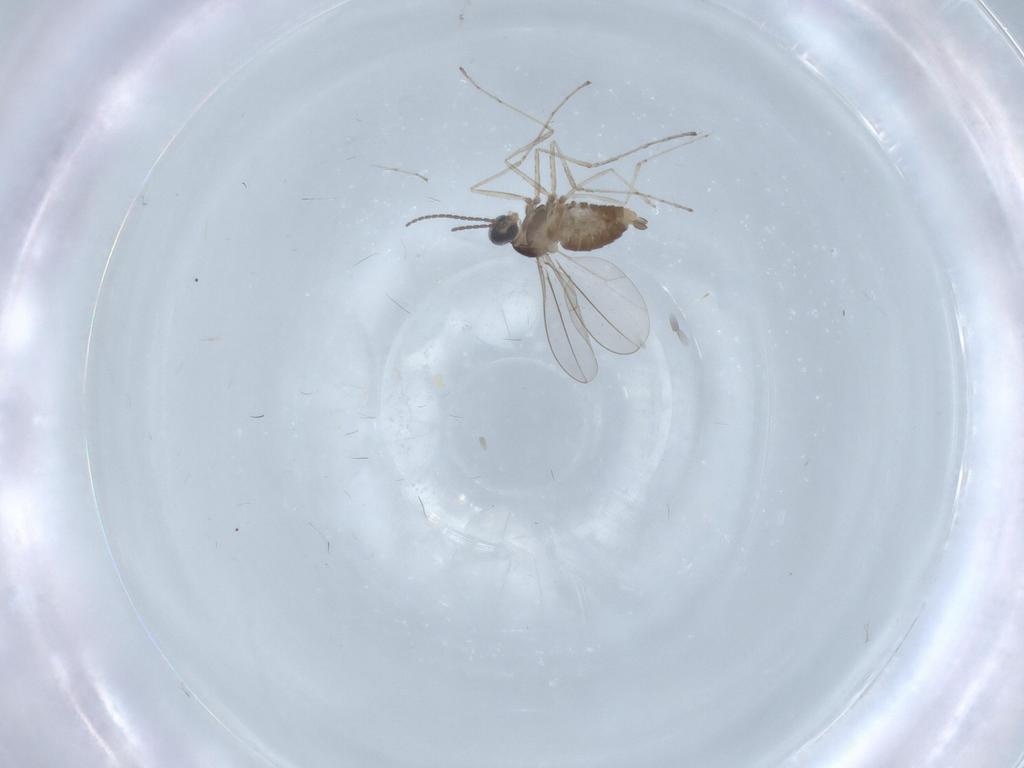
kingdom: Animalia
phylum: Arthropoda
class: Insecta
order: Diptera
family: Cecidomyiidae
